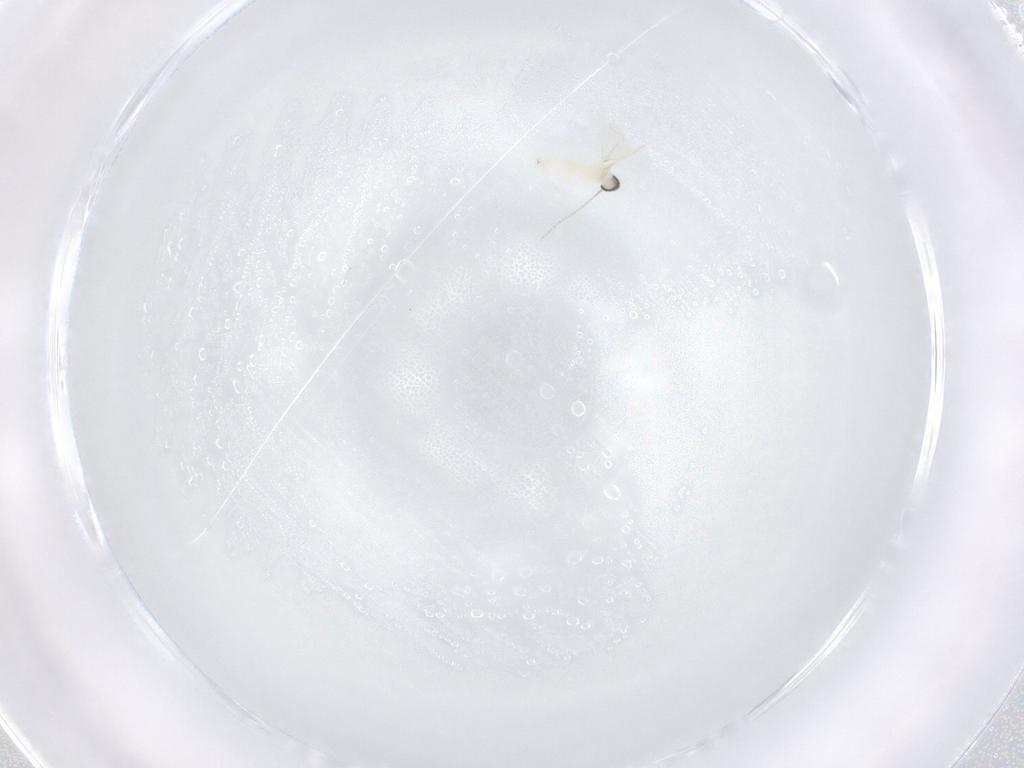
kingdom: Animalia
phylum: Arthropoda
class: Insecta
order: Diptera
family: Cecidomyiidae
